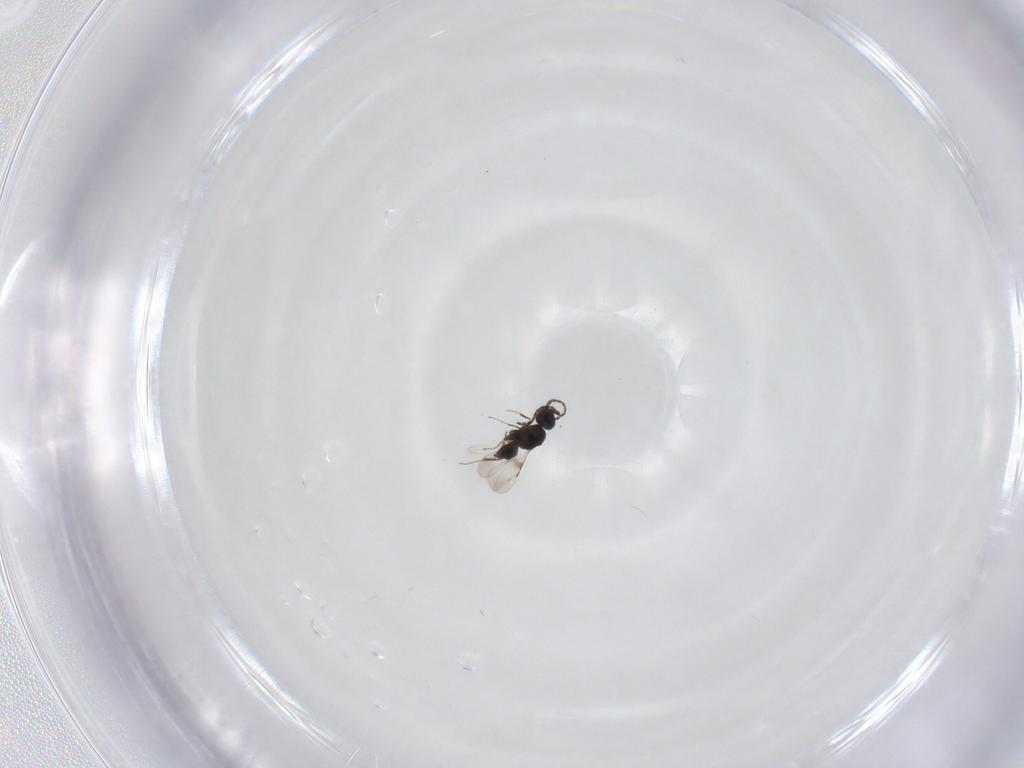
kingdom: Animalia
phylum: Arthropoda
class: Insecta
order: Hymenoptera
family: Ceraphronidae
